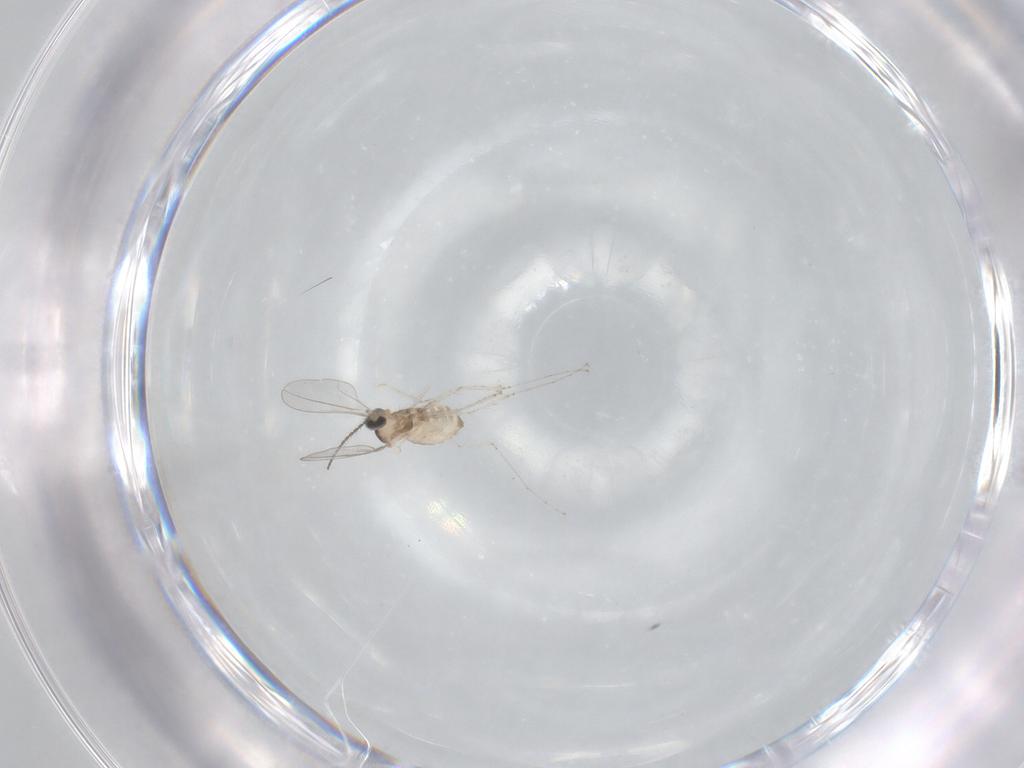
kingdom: Animalia
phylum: Arthropoda
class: Insecta
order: Diptera
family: Cecidomyiidae
